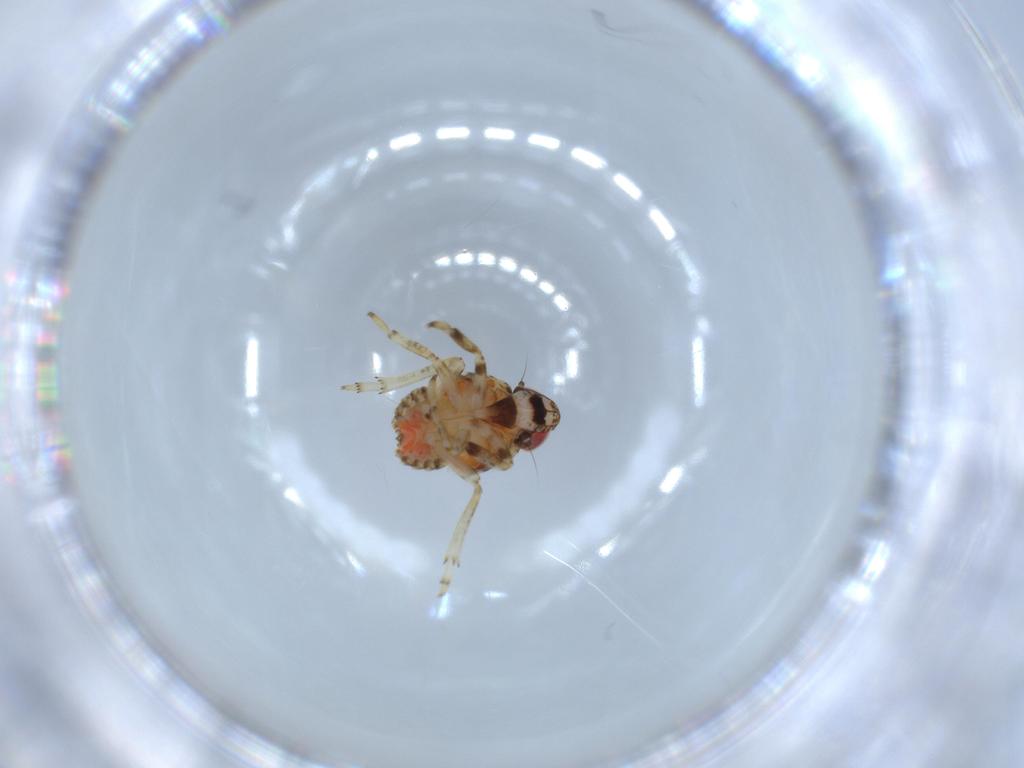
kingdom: Animalia
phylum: Arthropoda
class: Insecta
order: Hemiptera
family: Issidae
